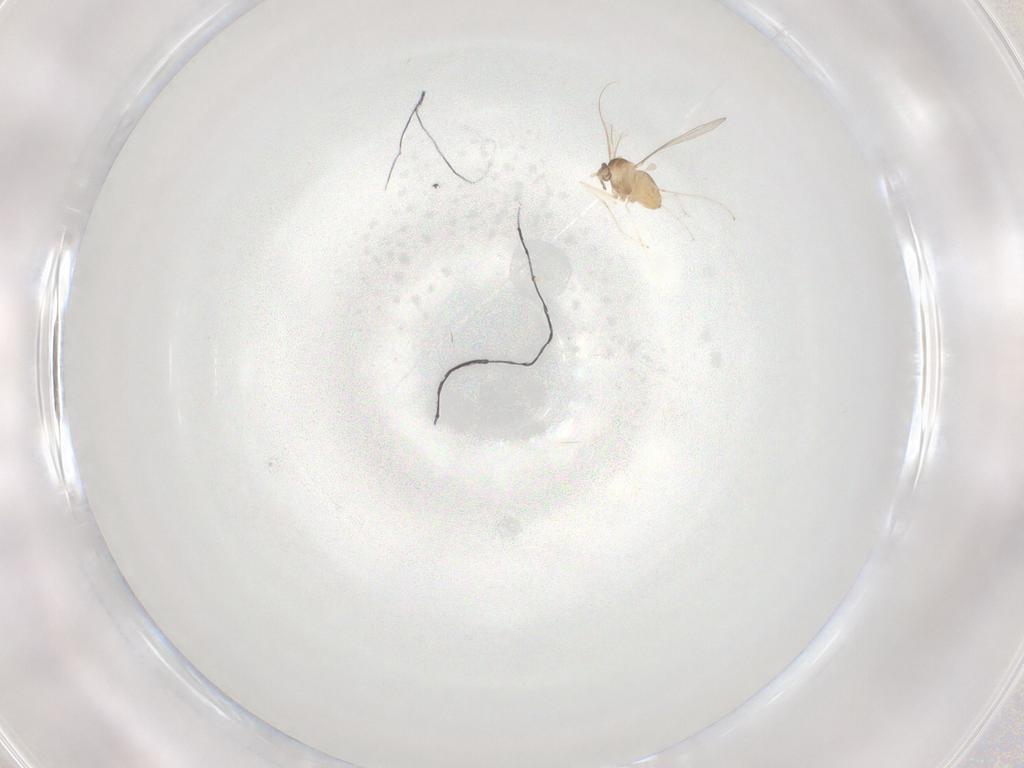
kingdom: Animalia
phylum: Arthropoda
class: Insecta
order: Diptera
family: Cecidomyiidae
